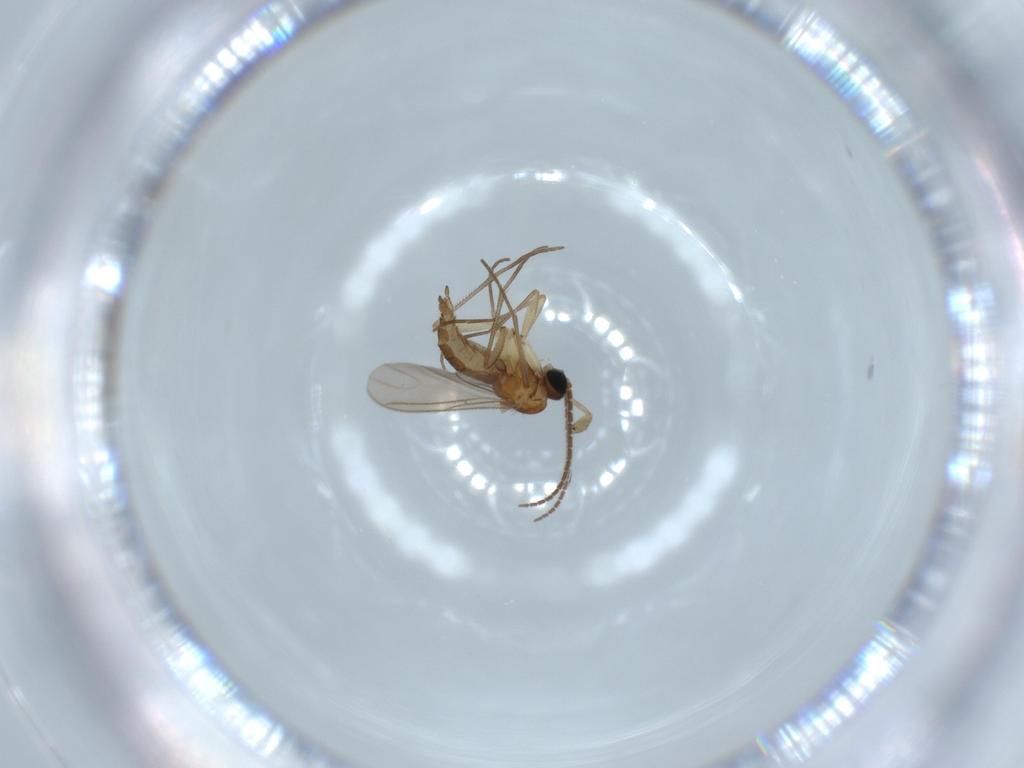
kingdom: Animalia
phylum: Arthropoda
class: Insecta
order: Diptera
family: Sciaridae
